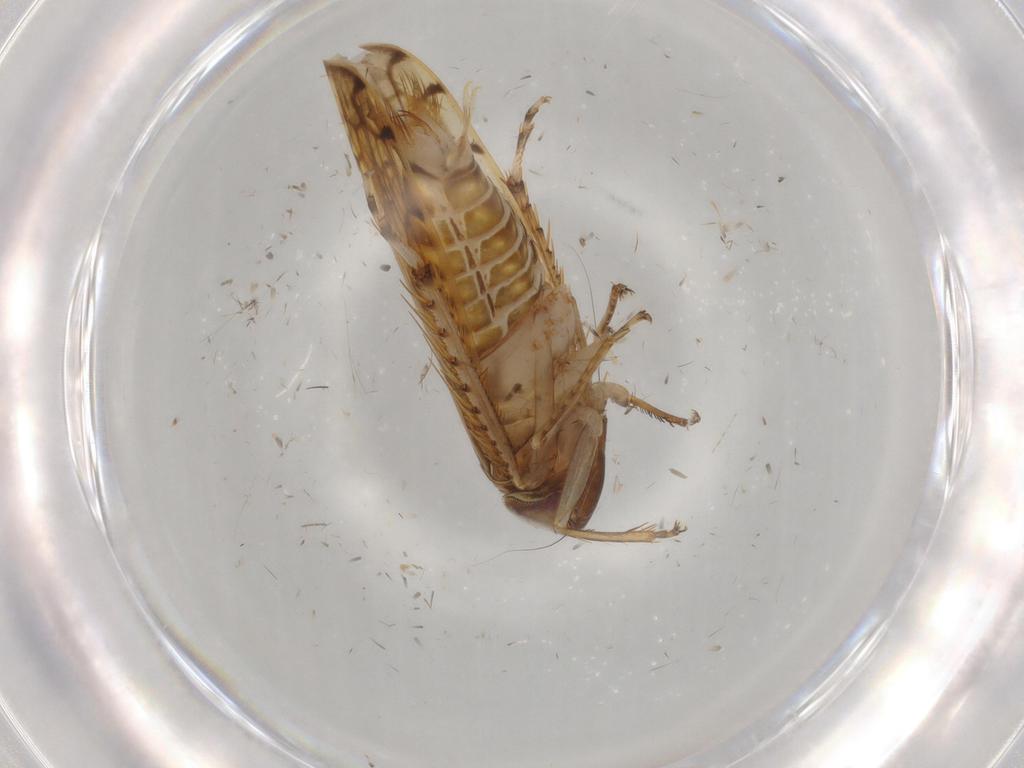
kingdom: Animalia
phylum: Arthropoda
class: Insecta
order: Hemiptera
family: Cicadellidae
